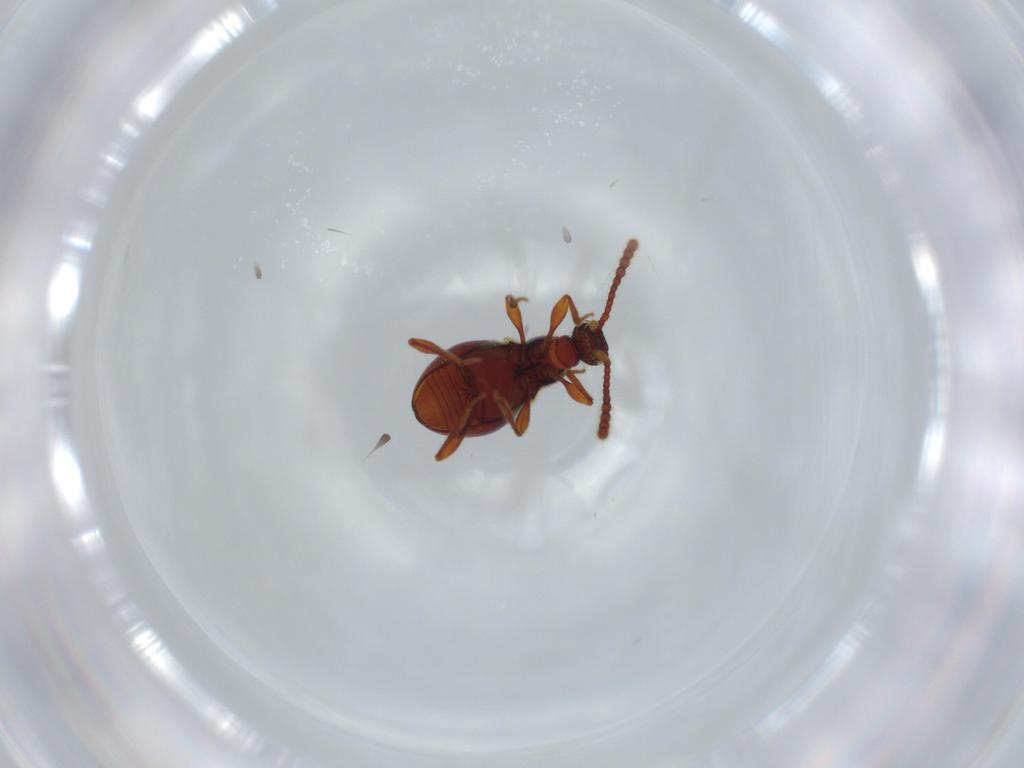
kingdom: Animalia
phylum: Arthropoda
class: Insecta
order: Coleoptera
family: Staphylinidae
